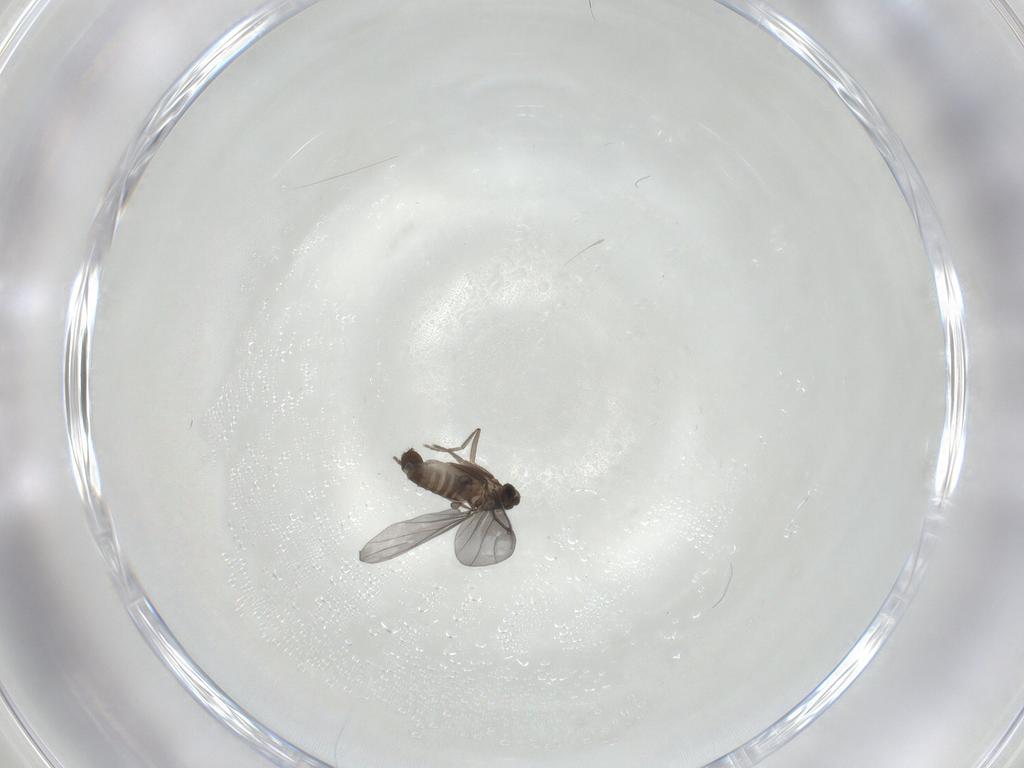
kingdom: Animalia
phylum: Arthropoda
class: Insecta
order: Diptera
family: Phoridae
